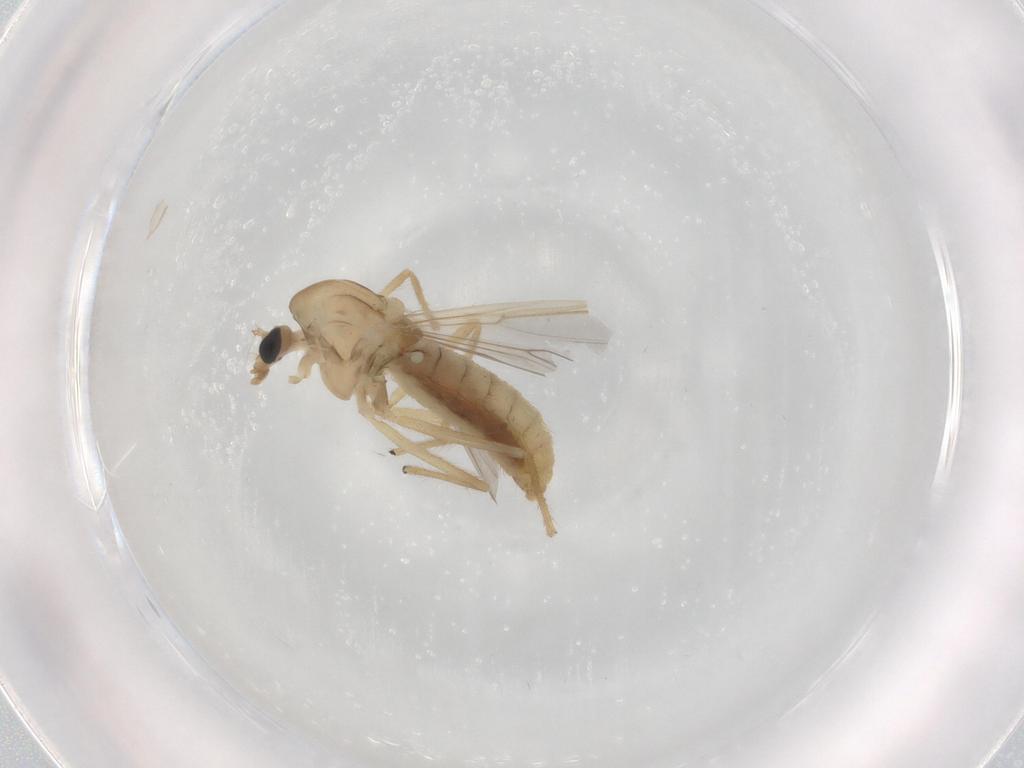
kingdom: Animalia
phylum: Arthropoda
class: Insecta
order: Diptera
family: Chironomidae
